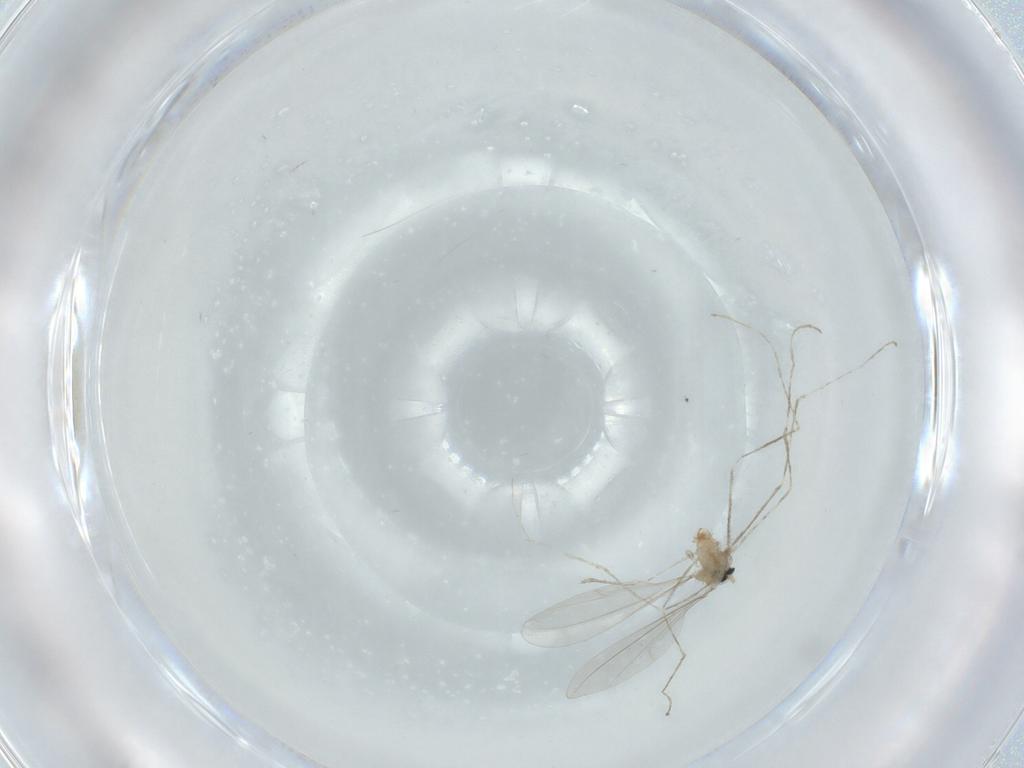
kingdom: Animalia
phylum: Arthropoda
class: Insecta
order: Diptera
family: Cecidomyiidae
